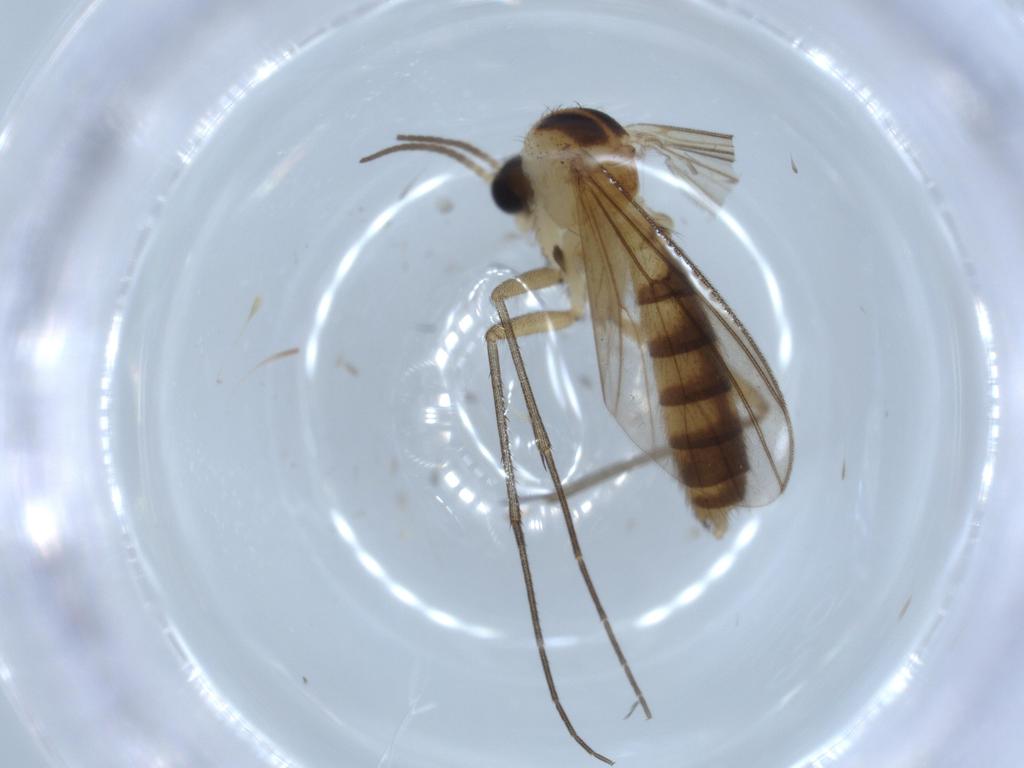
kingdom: Animalia
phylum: Arthropoda
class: Insecta
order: Diptera
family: Mycetophilidae
